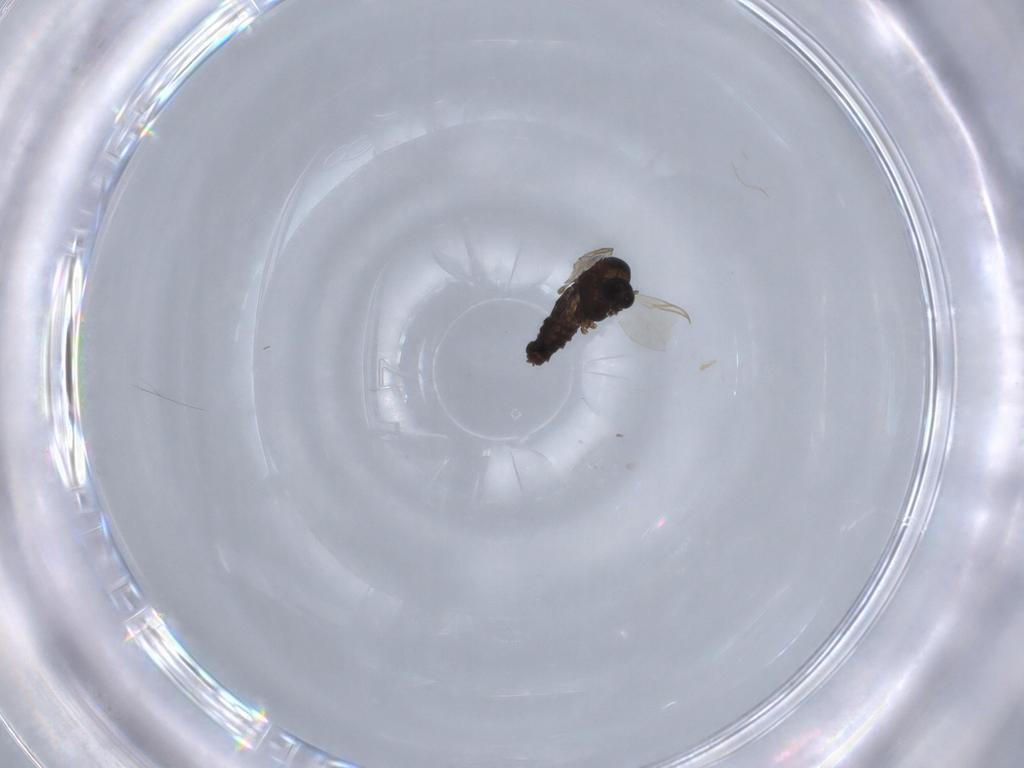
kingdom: Animalia
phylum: Arthropoda
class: Insecta
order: Diptera
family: Chironomidae
